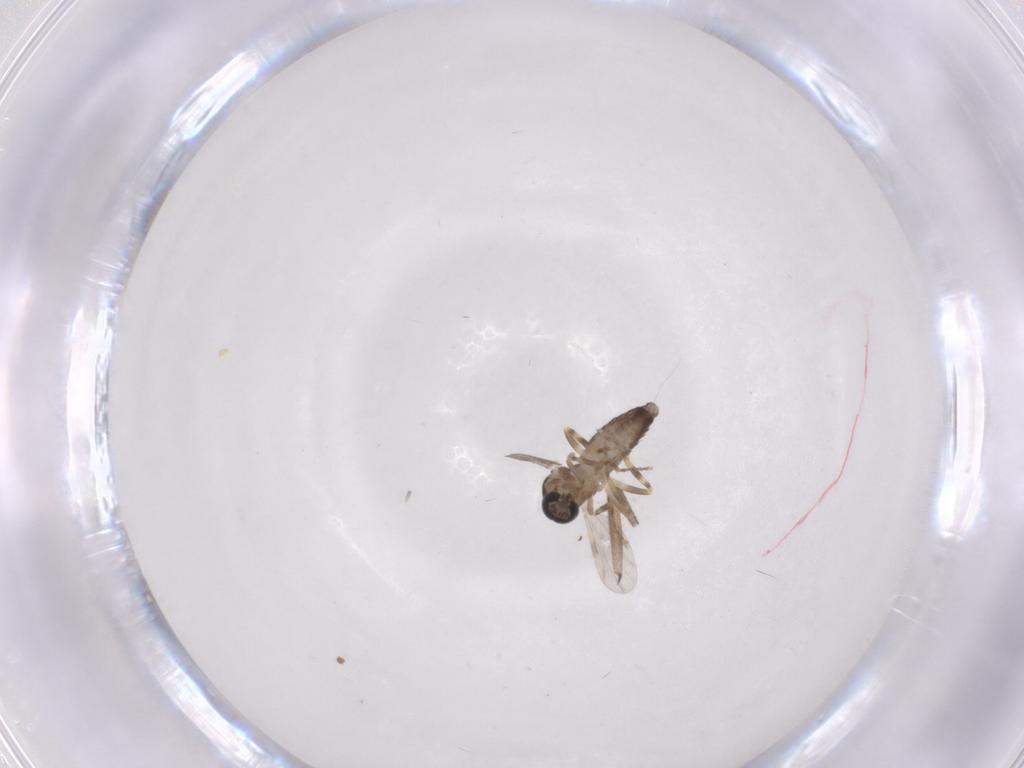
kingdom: Animalia
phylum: Arthropoda
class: Insecta
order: Diptera
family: Ceratopogonidae
